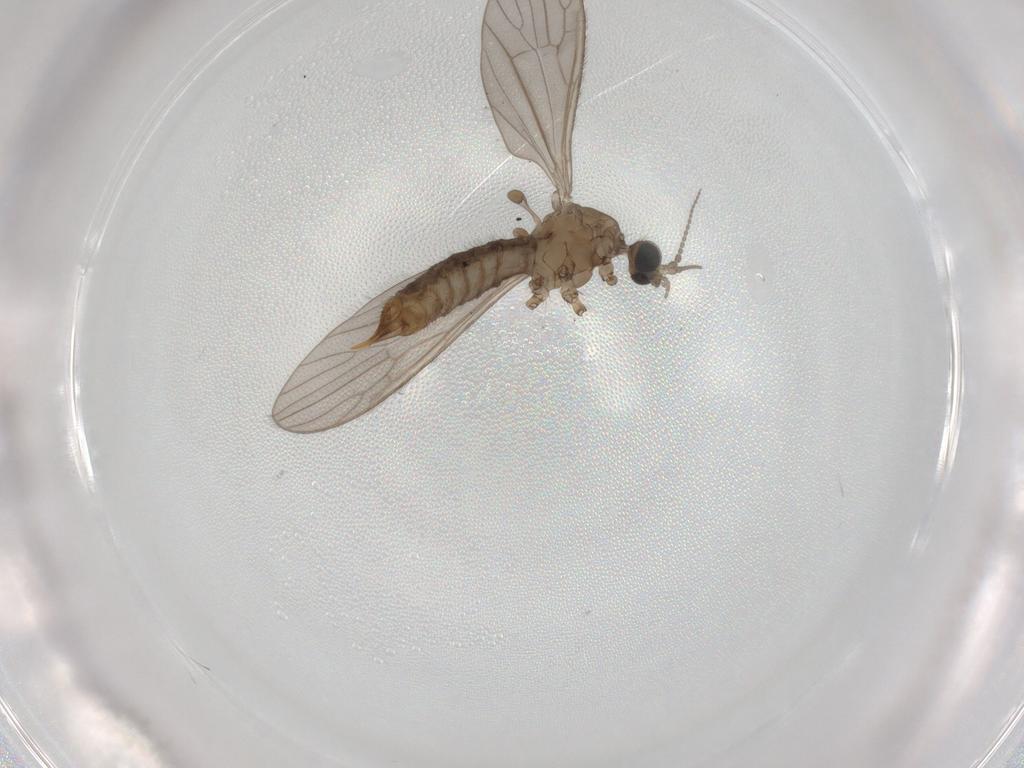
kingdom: Animalia
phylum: Arthropoda
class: Insecta
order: Diptera
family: Limoniidae
